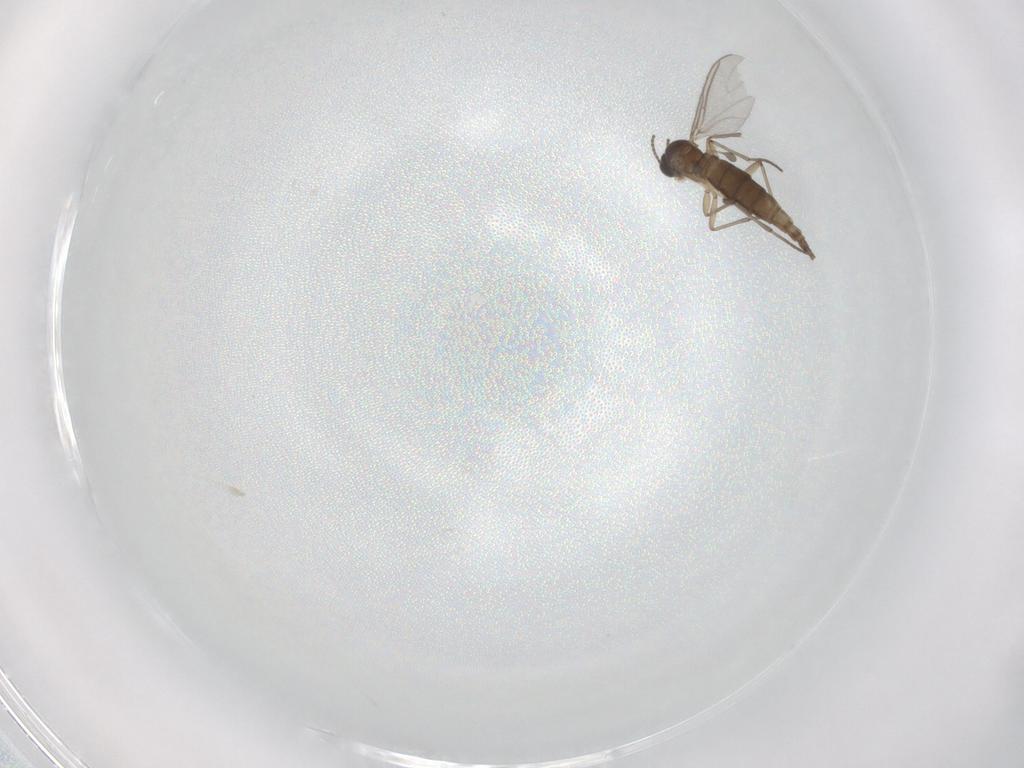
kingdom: Animalia
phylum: Arthropoda
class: Insecta
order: Diptera
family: Sciaridae
